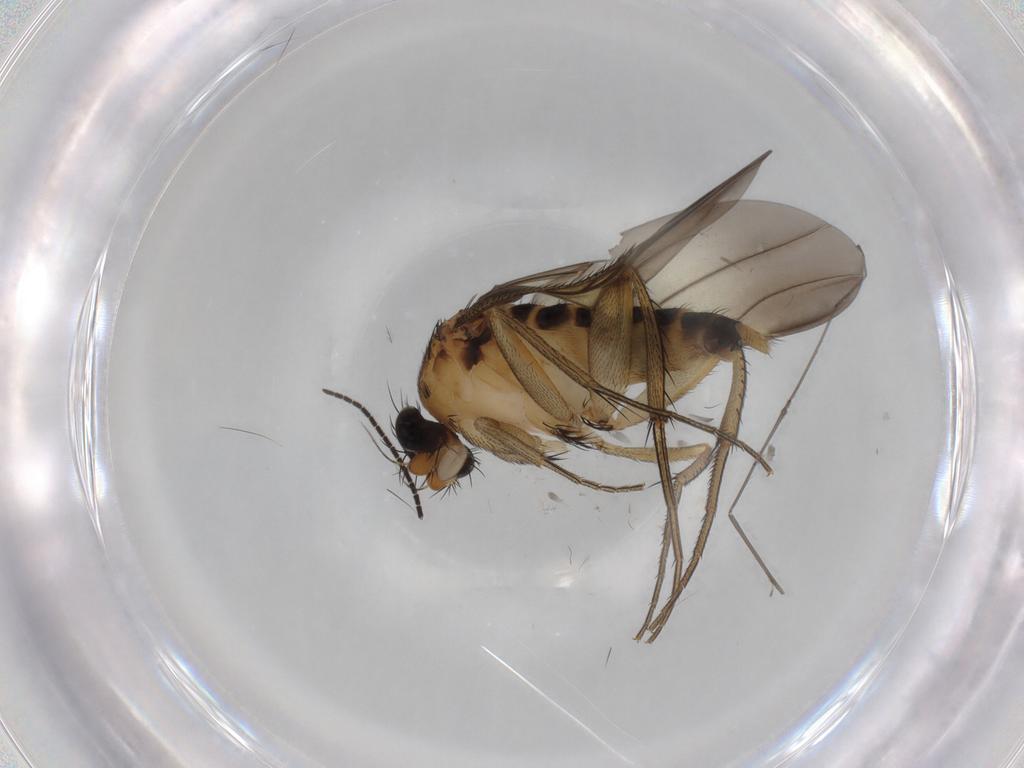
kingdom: Animalia
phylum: Arthropoda
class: Insecta
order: Diptera
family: Sciaridae
